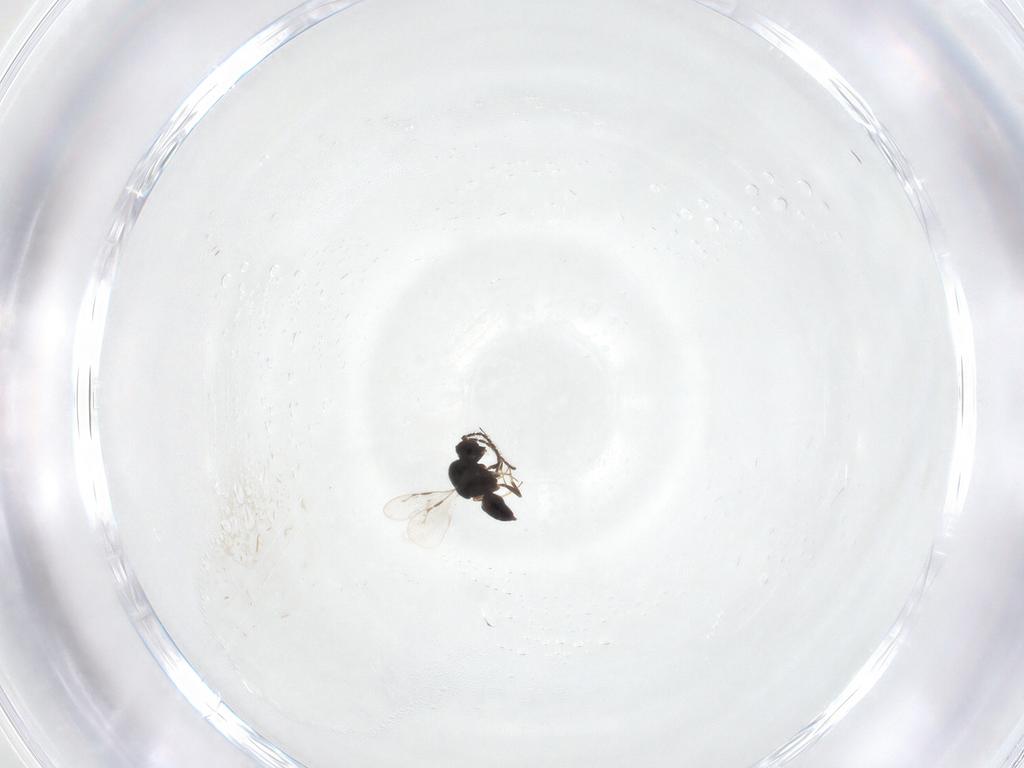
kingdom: Animalia
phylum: Arthropoda
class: Insecta
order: Hymenoptera
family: Ceraphronidae
